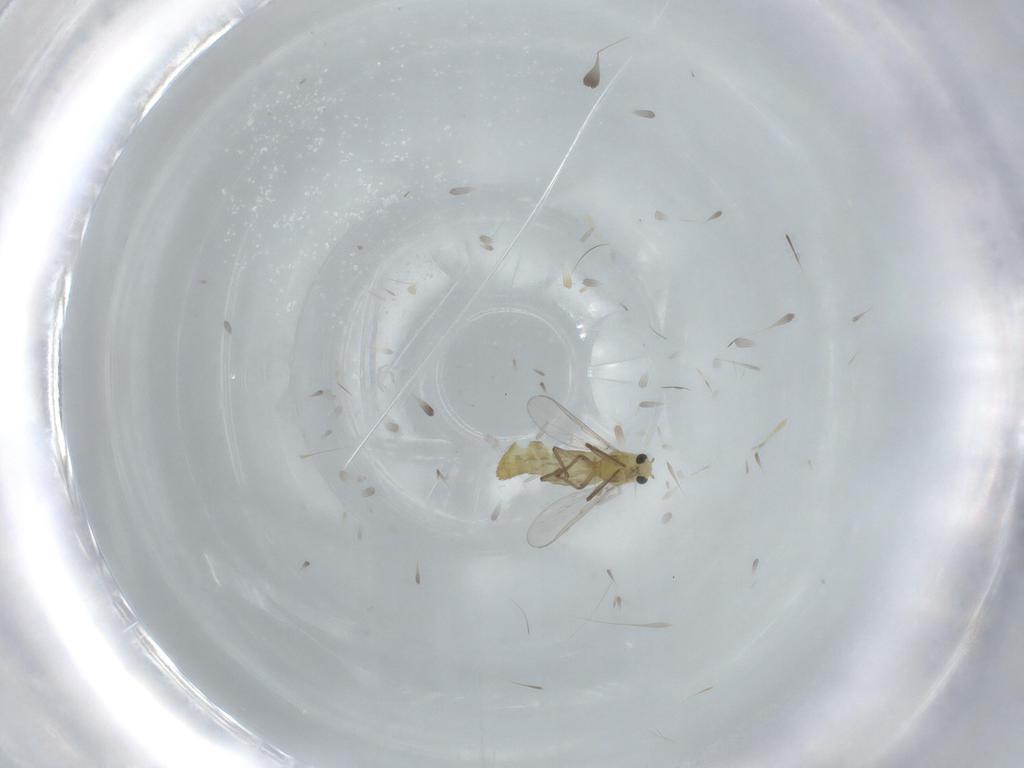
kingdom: Animalia
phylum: Arthropoda
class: Insecta
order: Diptera
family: Chironomidae
